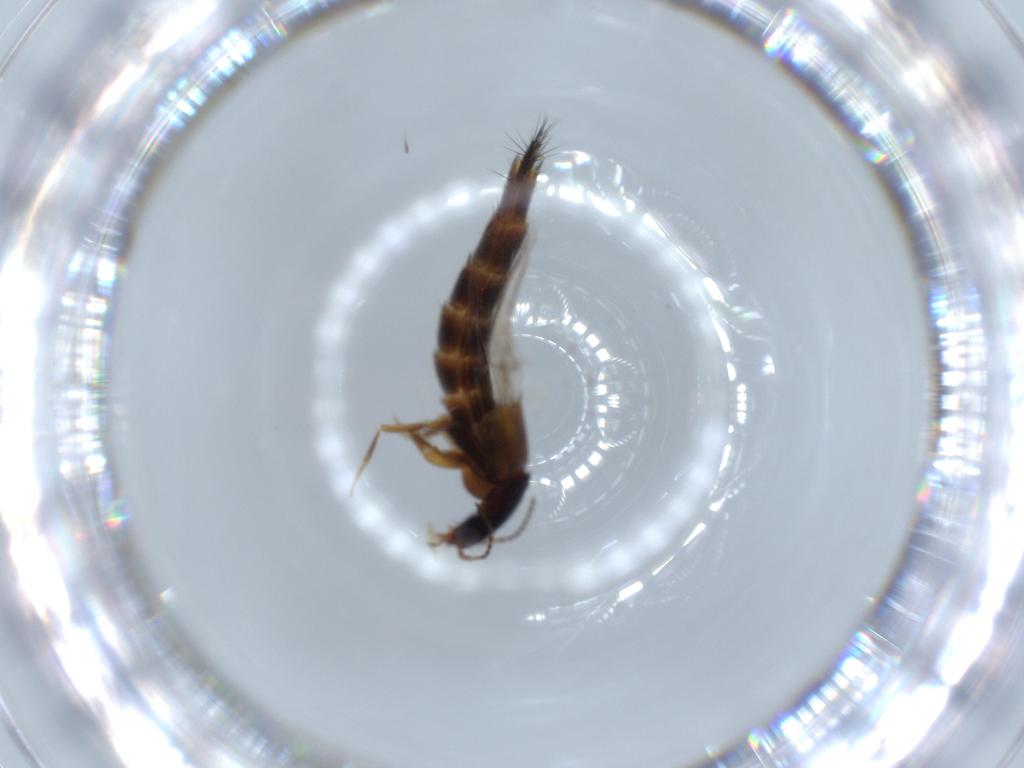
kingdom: Animalia
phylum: Arthropoda
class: Insecta
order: Coleoptera
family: Staphylinidae
